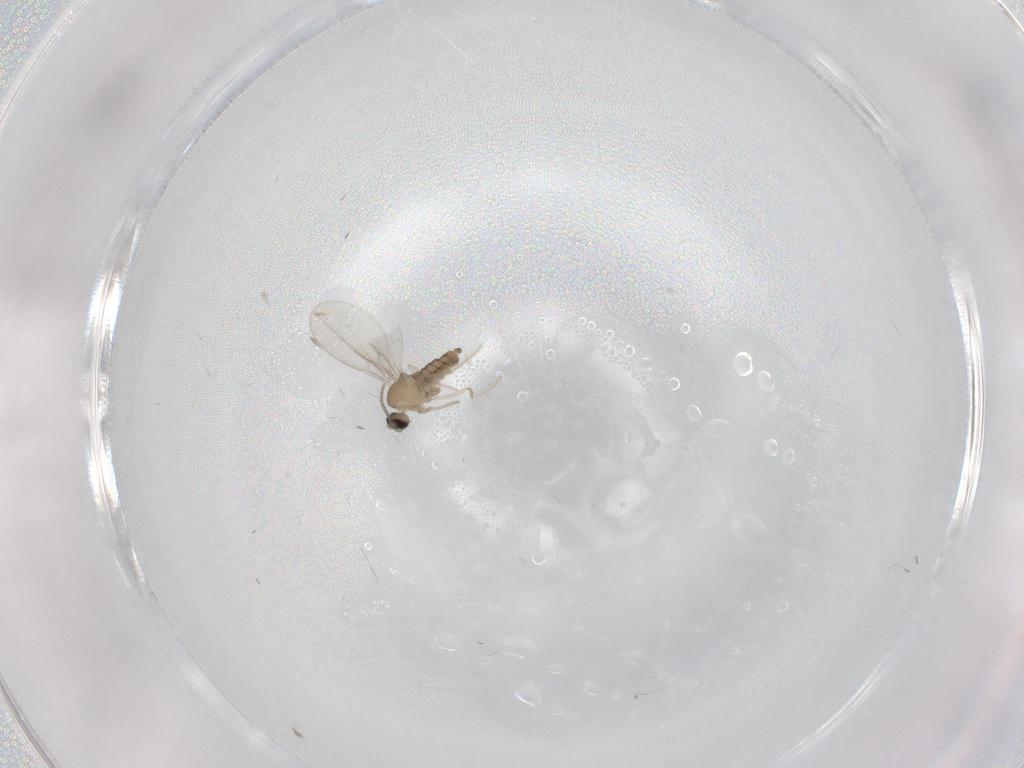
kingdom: Animalia
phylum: Arthropoda
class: Insecta
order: Diptera
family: Cecidomyiidae
